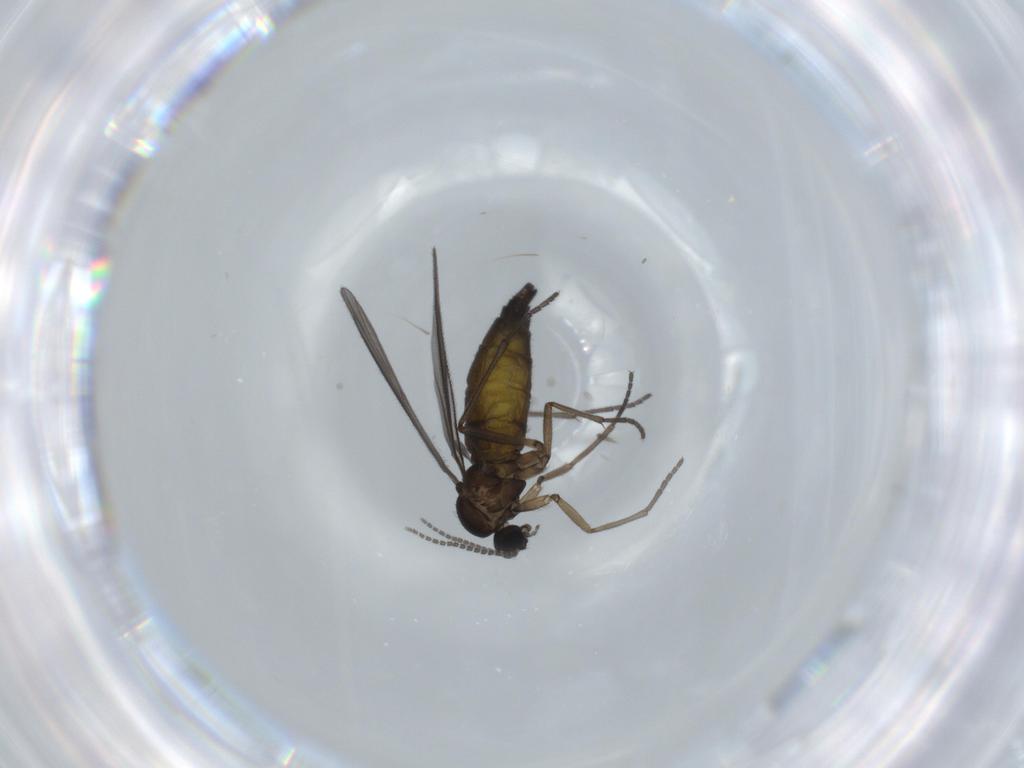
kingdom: Animalia
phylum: Arthropoda
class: Insecta
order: Diptera
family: Sciaridae
